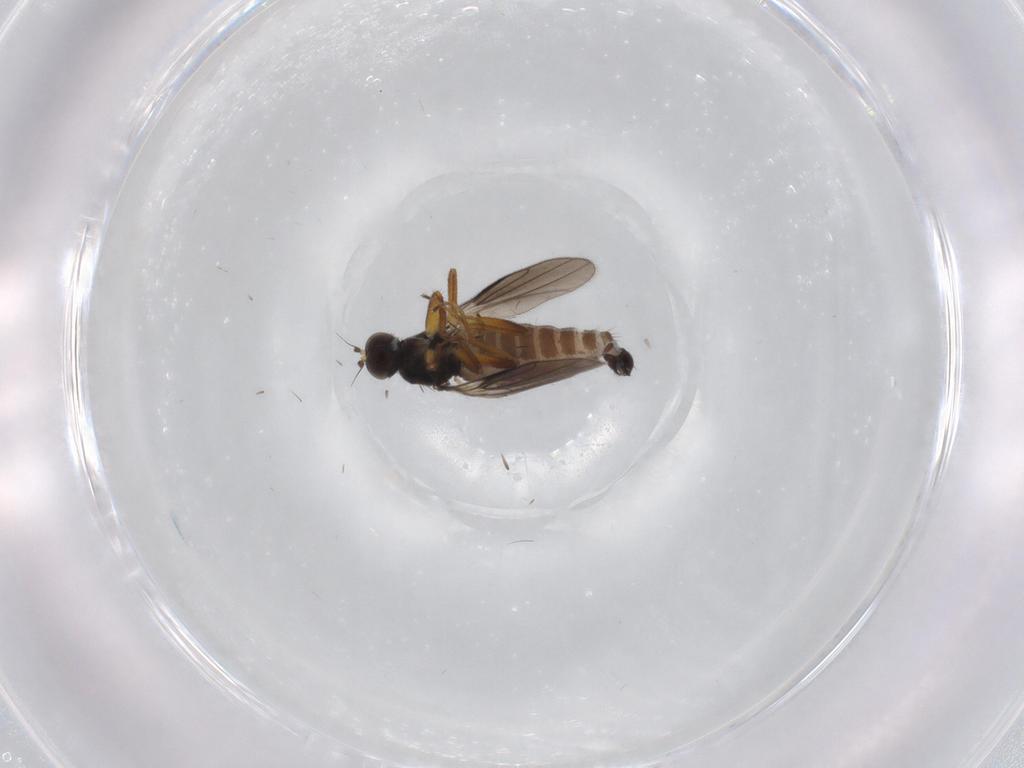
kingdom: Animalia
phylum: Arthropoda
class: Insecta
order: Diptera
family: Hybotidae
